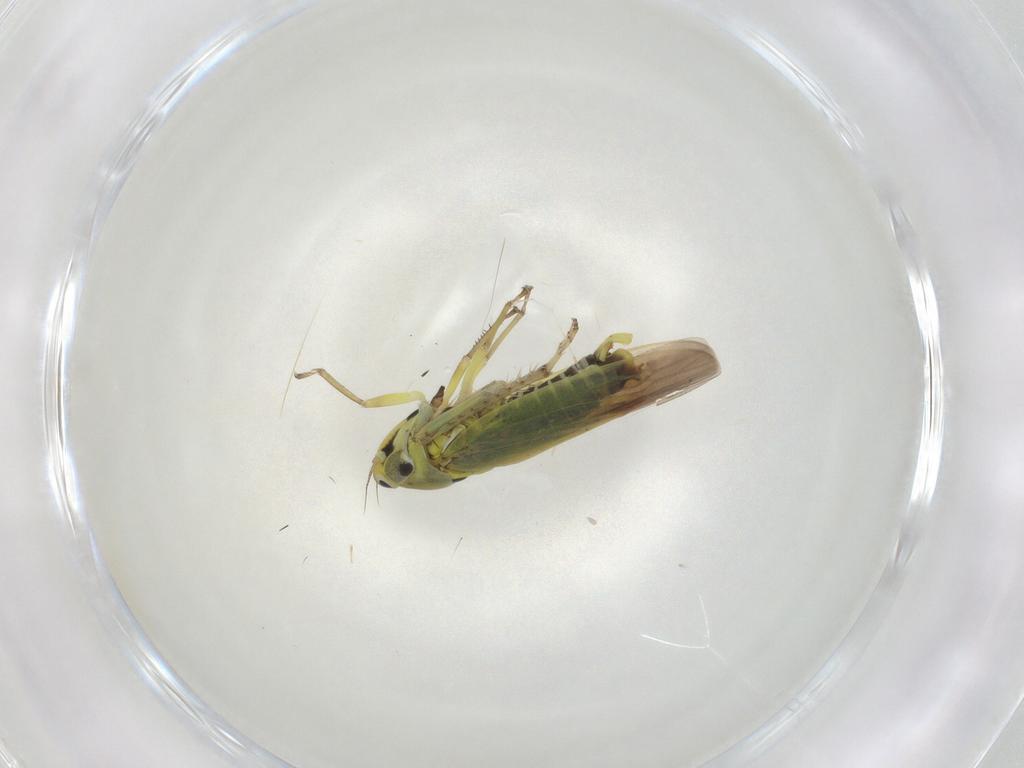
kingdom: Animalia
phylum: Arthropoda
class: Insecta
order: Hemiptera
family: Cicadellidae
